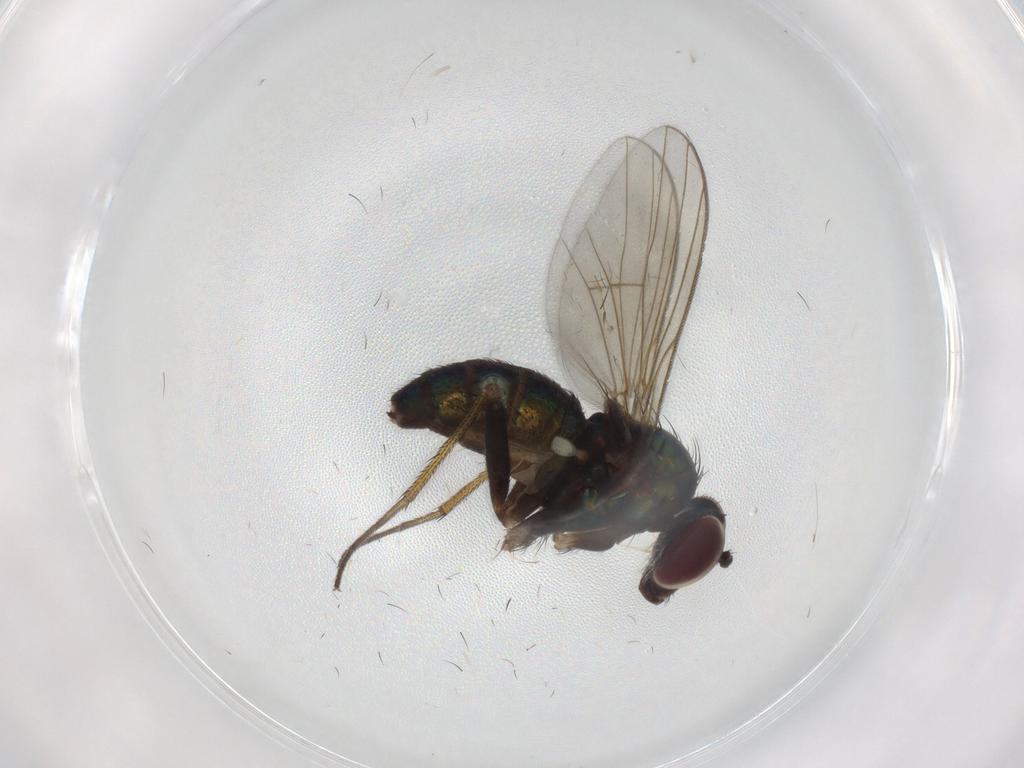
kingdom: Animalia
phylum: Arthropoda
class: Insecta
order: Diptera
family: Dolichopodidae
